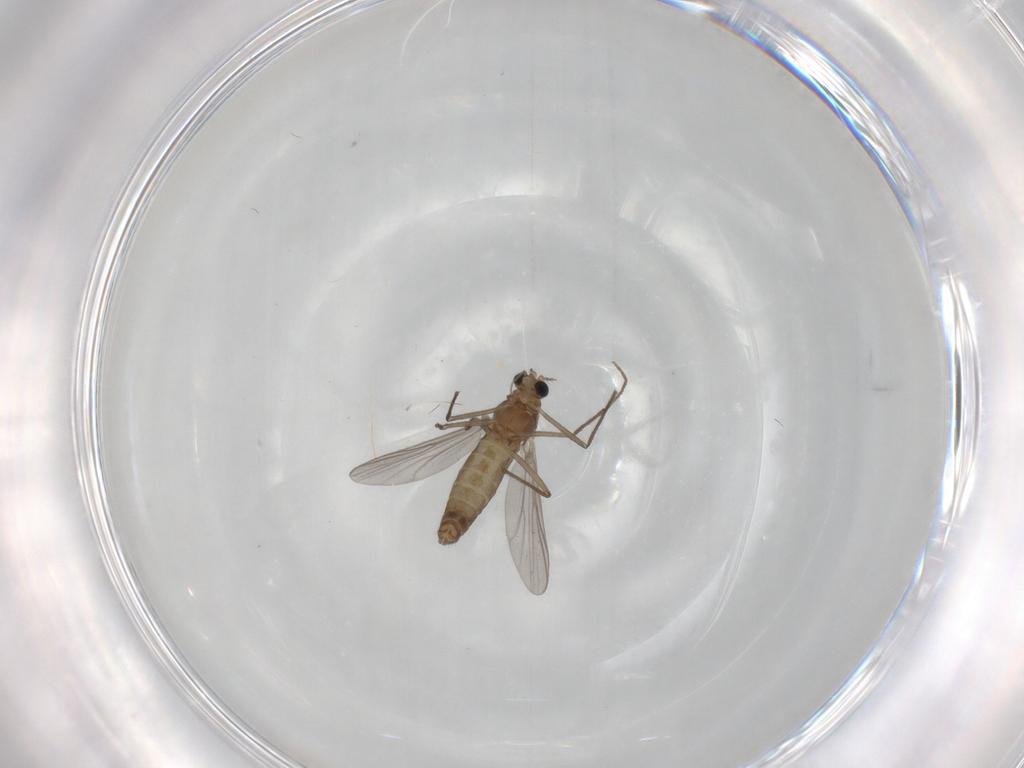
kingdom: Animalia
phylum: Arthropoda
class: Insecta
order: Diptera
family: Chironomidae
